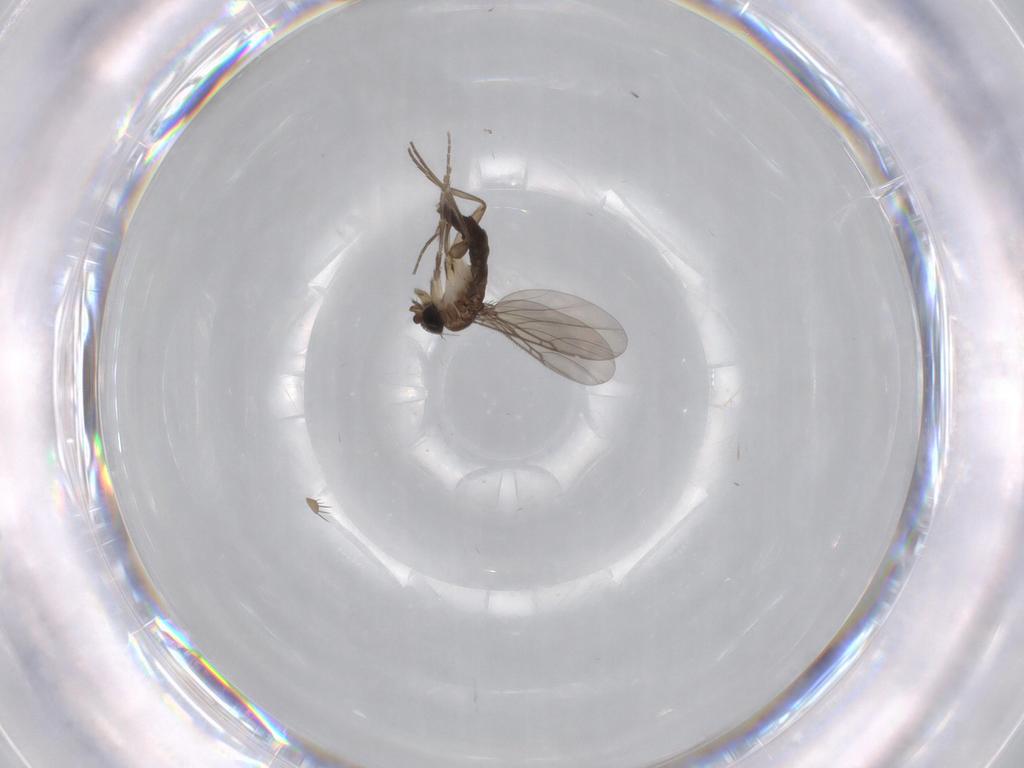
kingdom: Animalia
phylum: Arthropoda
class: Insecta
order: Diptera
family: Phoridae
